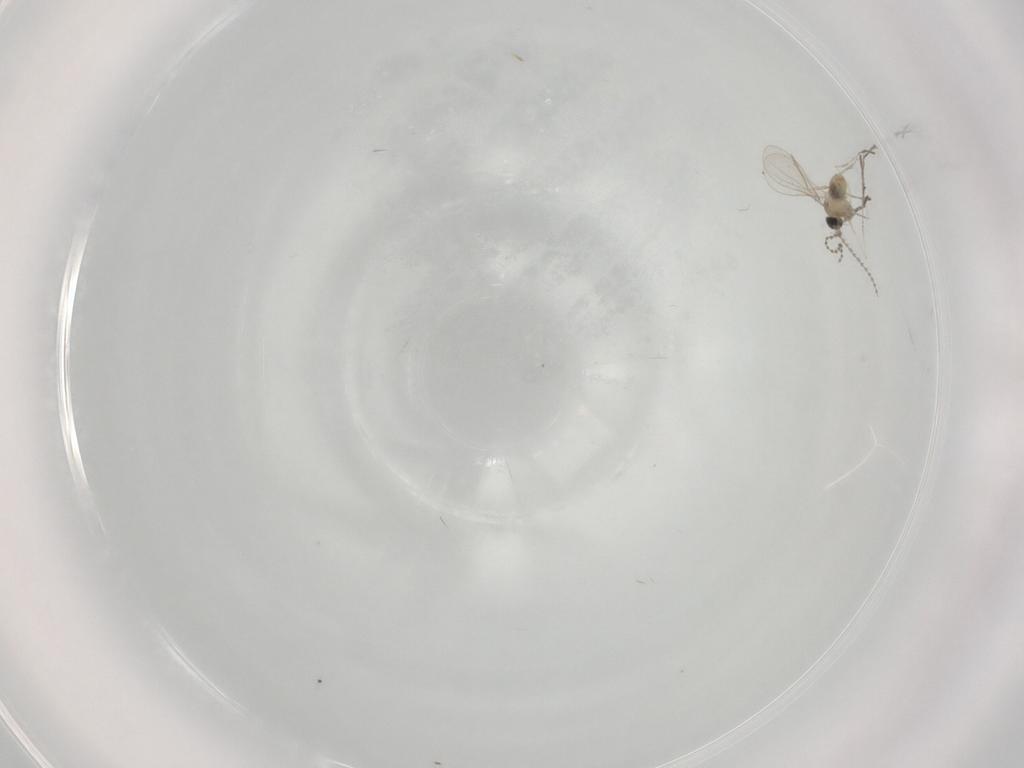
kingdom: Animalia
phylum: Arthropoda
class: Insecta
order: Diptera
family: Cecidomyiidae
